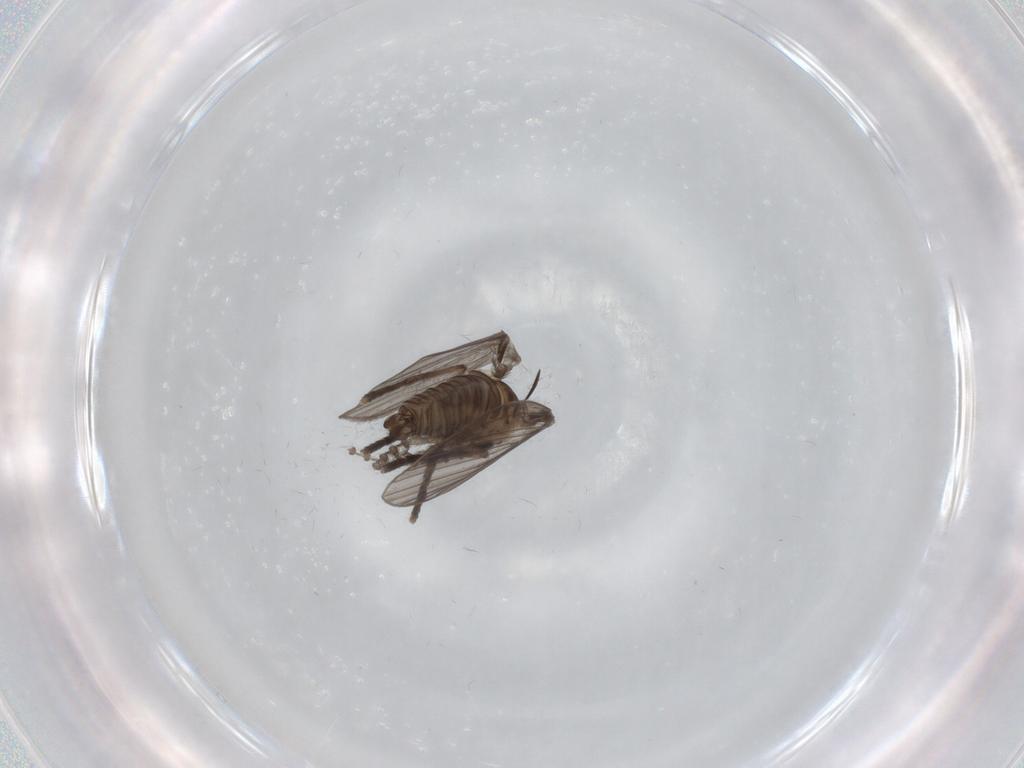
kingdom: Animalia
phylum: Arthropoda
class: Insecta
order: Diptera
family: Psychodidae
